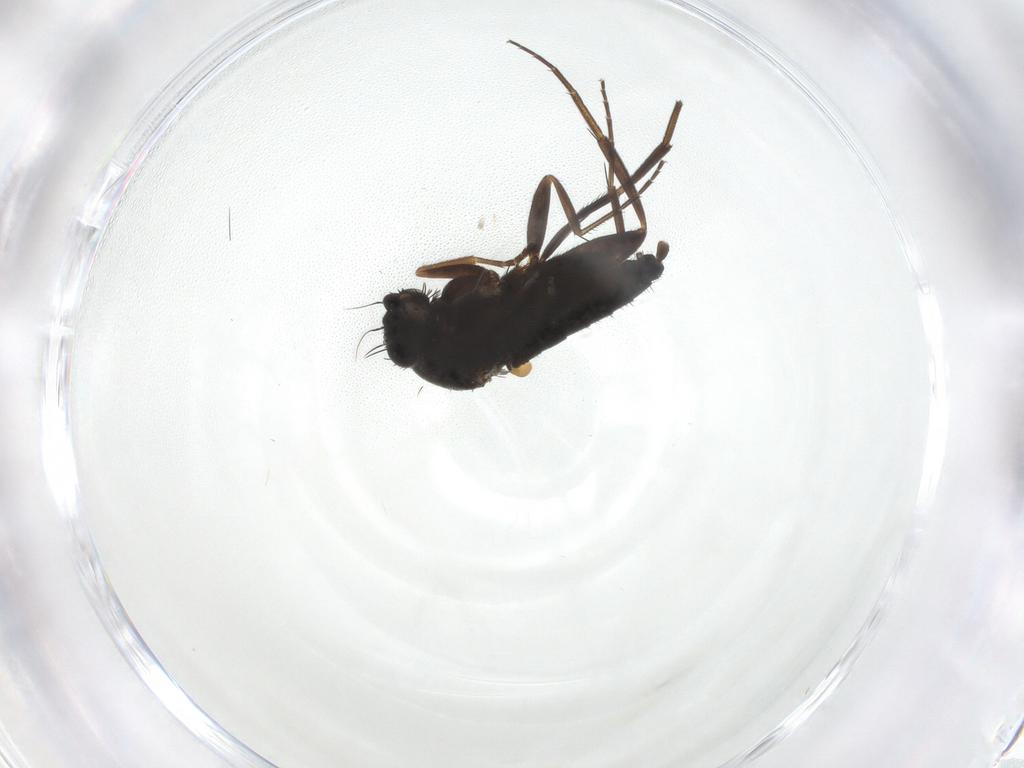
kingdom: Animalia
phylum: Arthropoda
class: Insecta
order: Diptera
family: Phoridae
